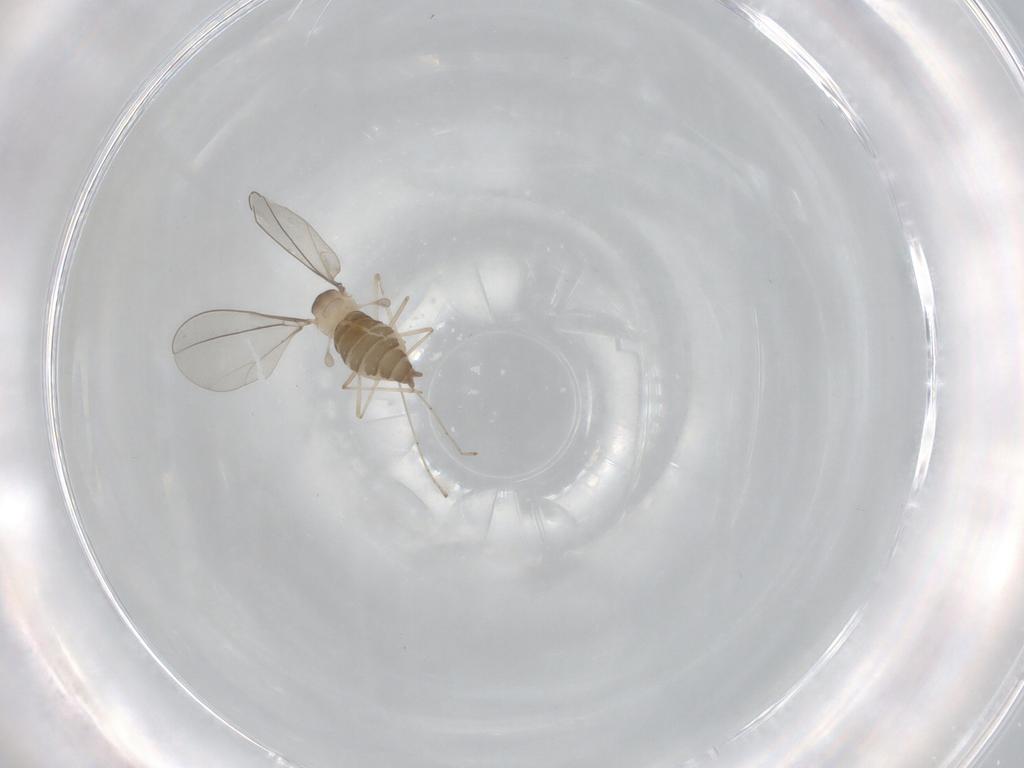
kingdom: Animalia
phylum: Arthropoda
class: Insecta
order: Diptera
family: Cecidomyiidae
